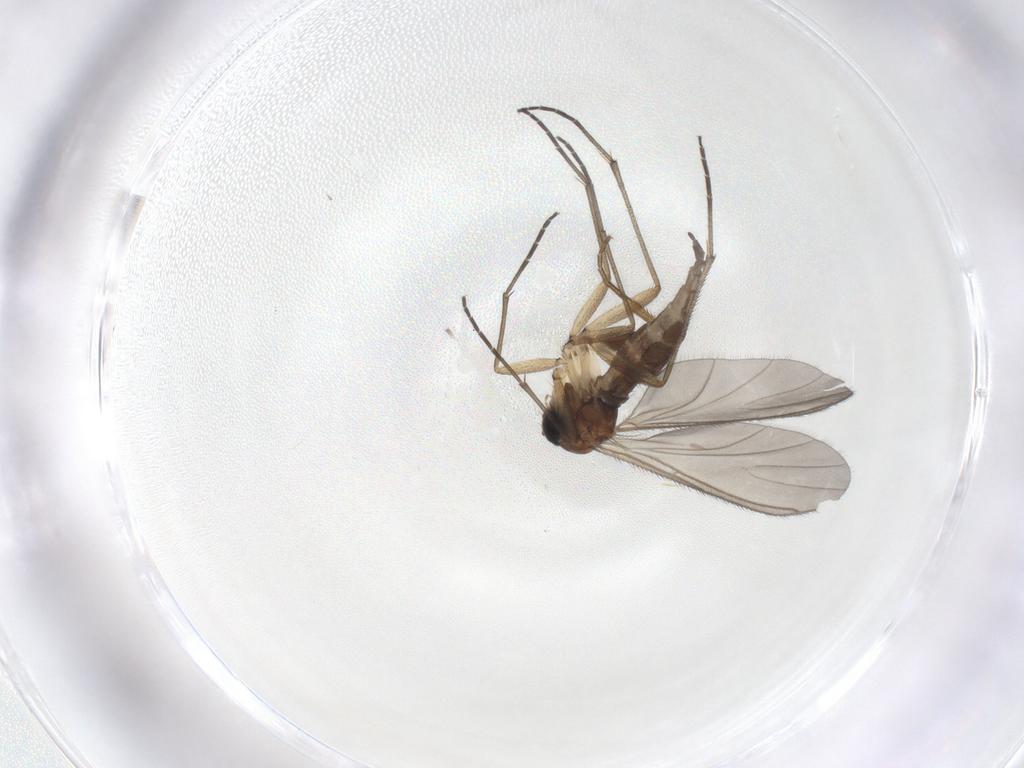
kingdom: Animalia
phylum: Arthropoda
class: Insecta
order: Diptera
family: Sciaridae
